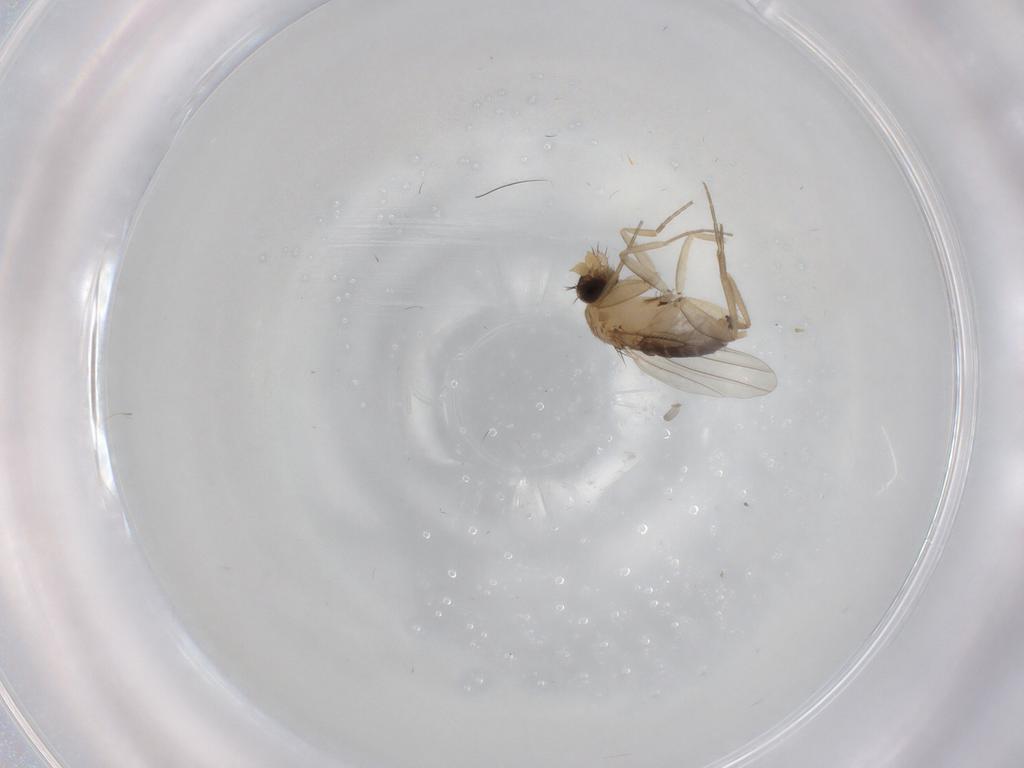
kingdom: Animalia
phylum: Arthropoda
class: Insecta
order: Diptera
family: Phoridae
